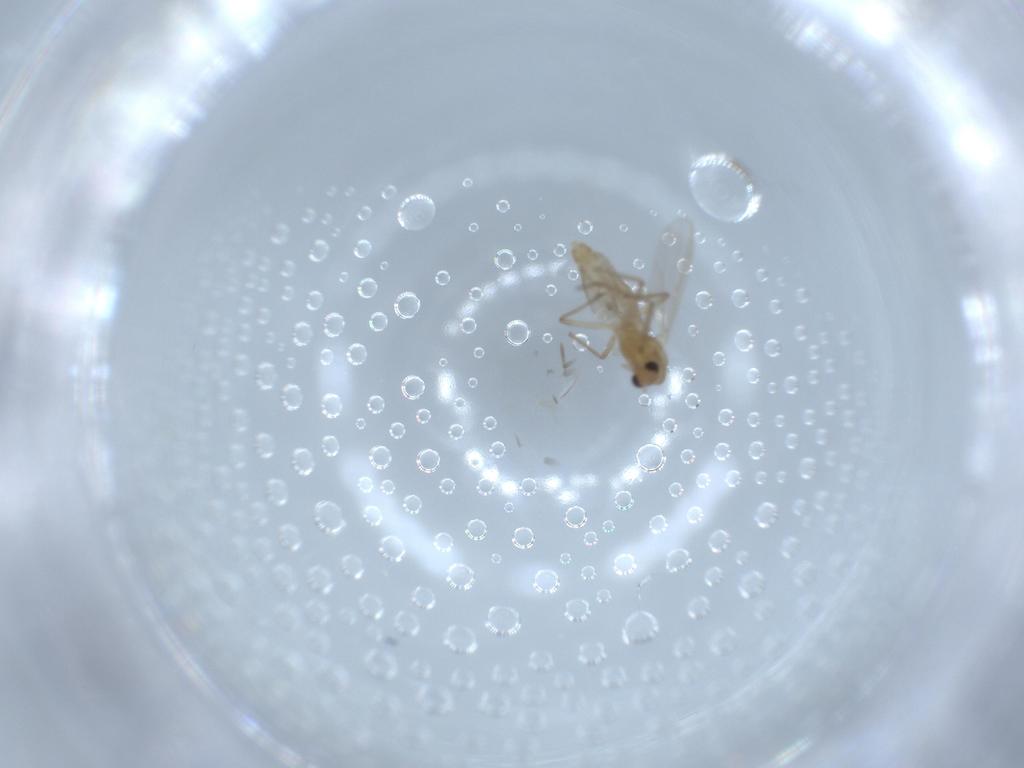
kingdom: Animalia
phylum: Arthropoda
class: Insecta
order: Diptera
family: Chironomidae
